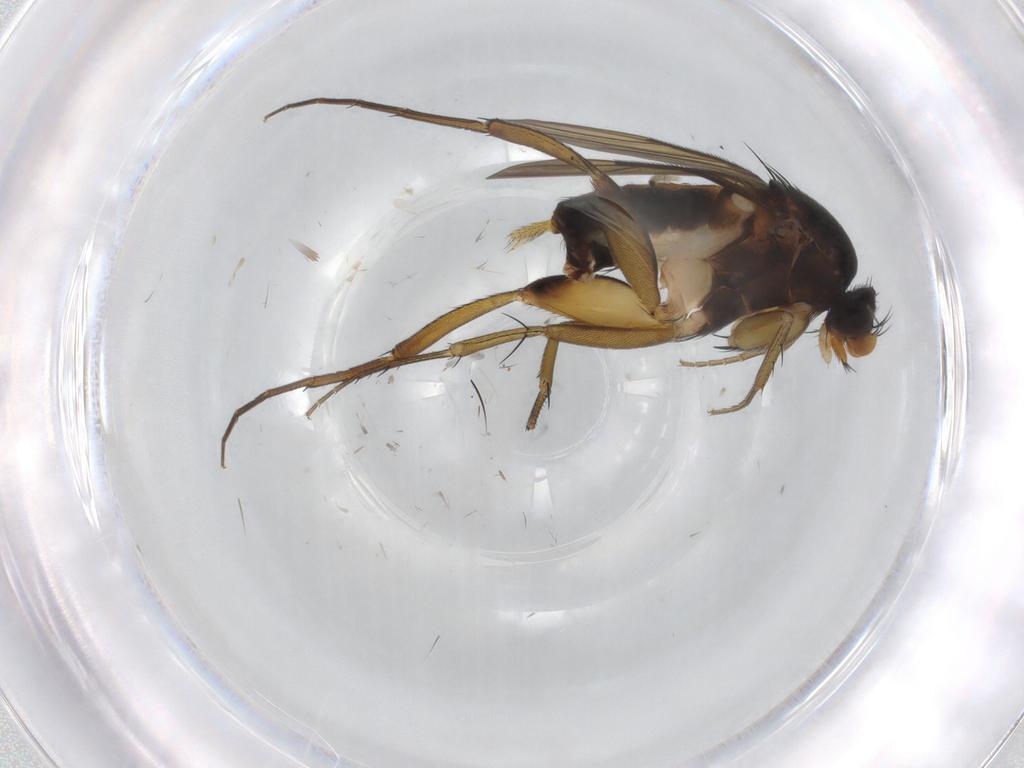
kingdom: Animalia
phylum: Arthropoda
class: Insecta
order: Diptera
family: Phoridae
